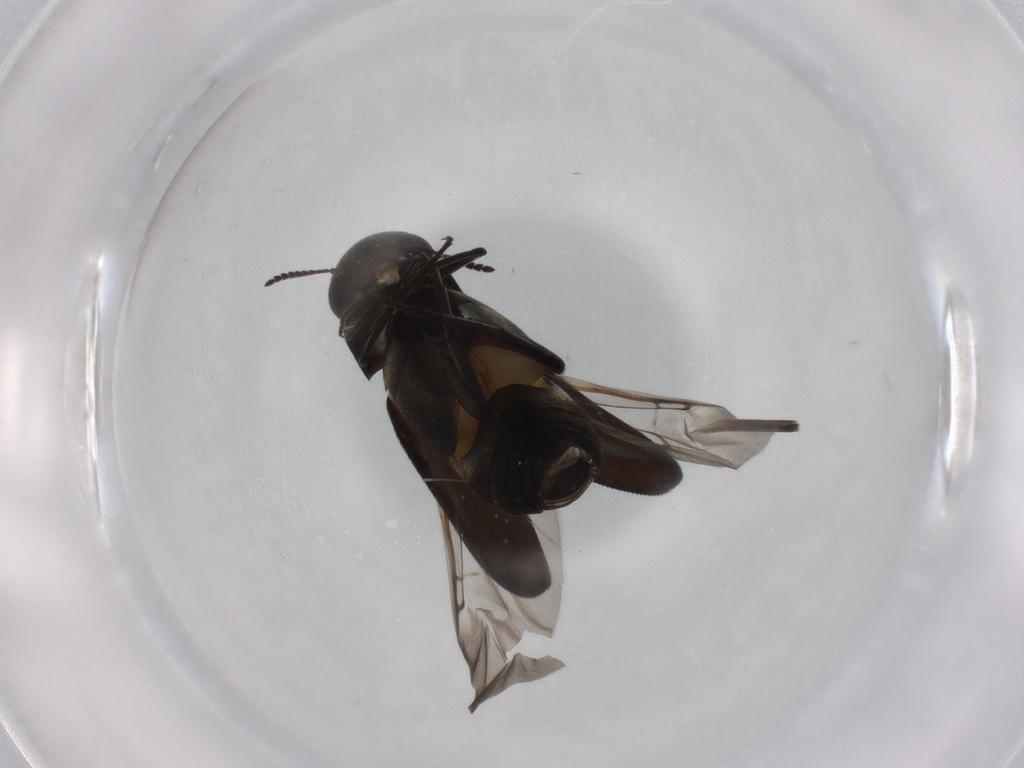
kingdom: Animalia
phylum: Arthropoda
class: Insecta
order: Coleoptera
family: Mordellidae
